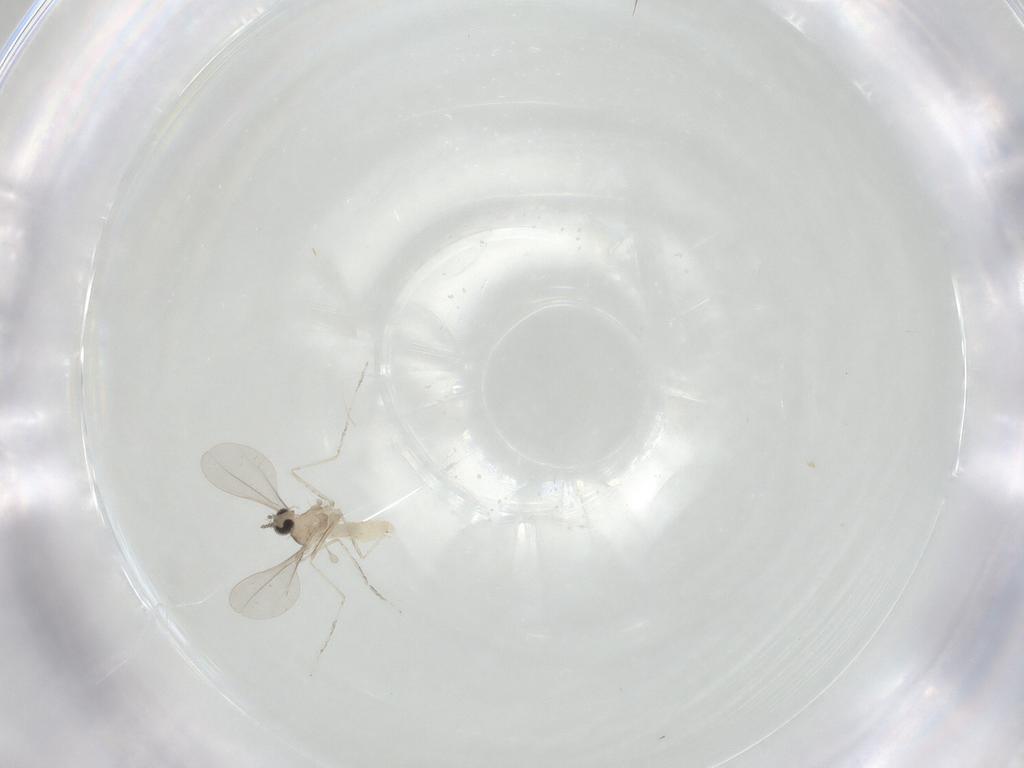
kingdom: Animalia
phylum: Arthropoda
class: Insecta
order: Diptera
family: Cecidomyiidae
